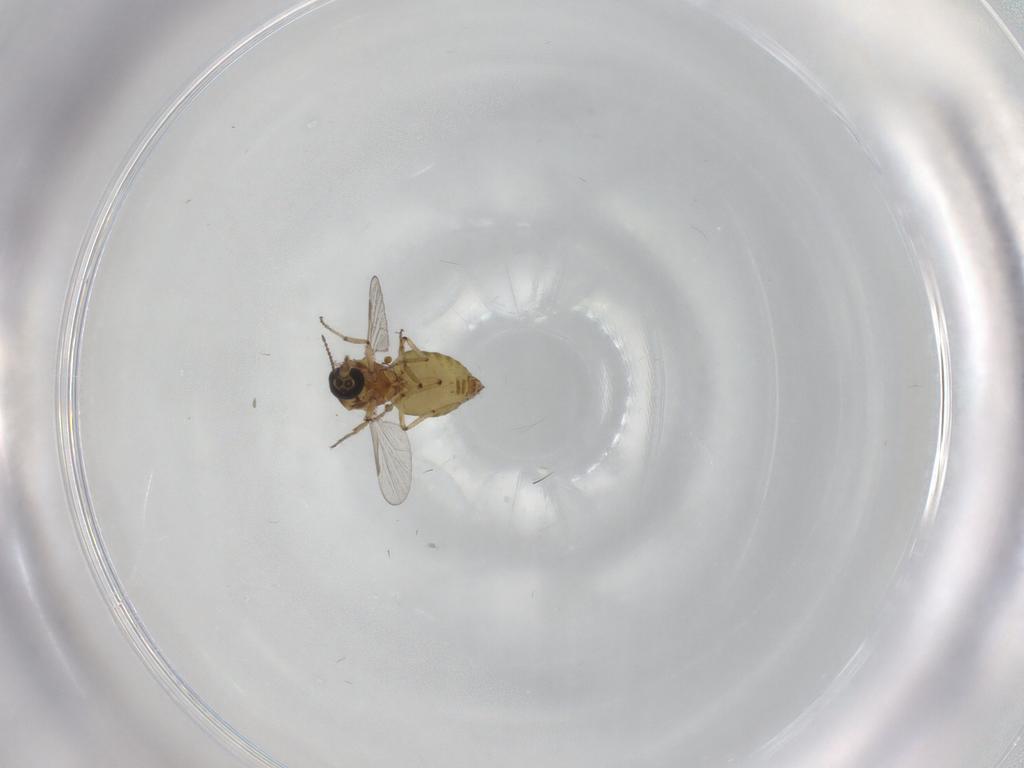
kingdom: Animalia
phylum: Arthropoda
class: Insecta
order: Diptera
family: Ceratopogonidae
